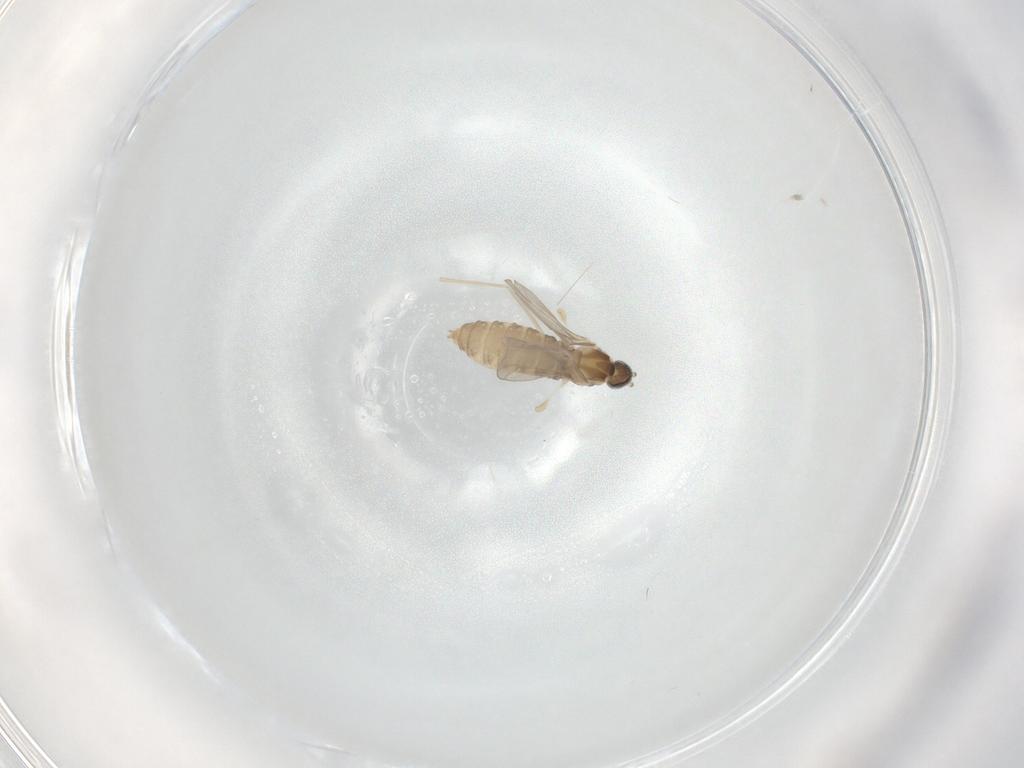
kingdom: Animalia
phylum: Arthropoda
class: Insecta
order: Diptera
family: Cecidomyiidae
